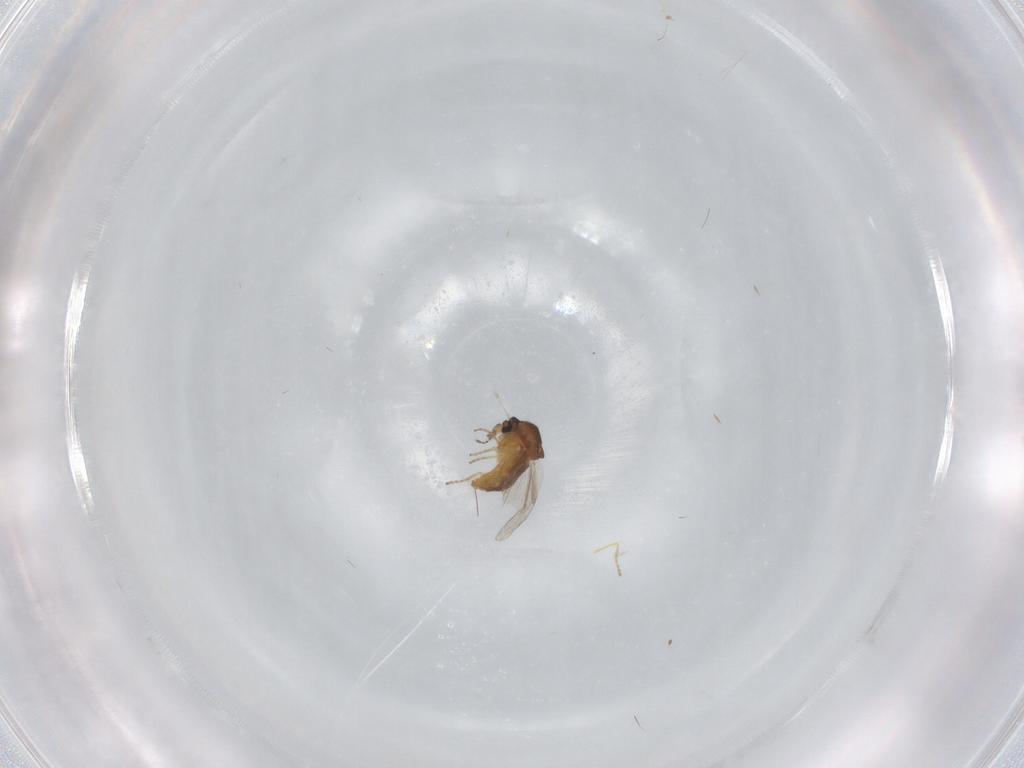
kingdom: Animalia
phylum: Arthropoda
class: Insecta
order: Diptera
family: Ceratopogonidae
